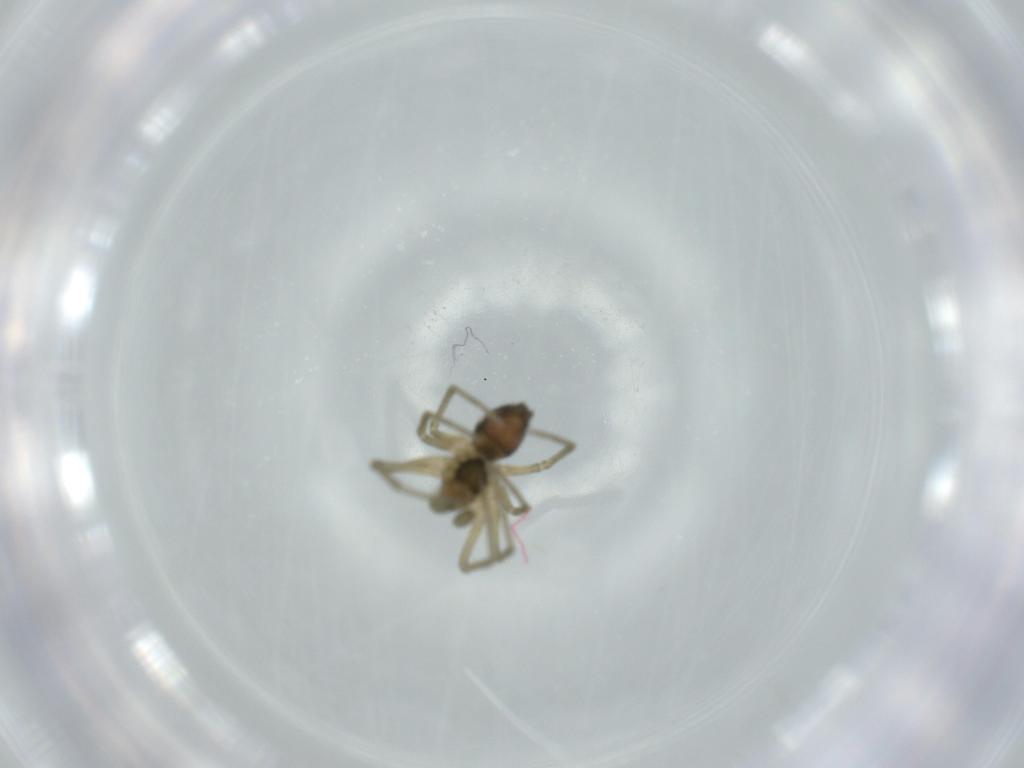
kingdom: Animalia
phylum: Arthropoda
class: Arachnida
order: Araneae
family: Linyphiidae
